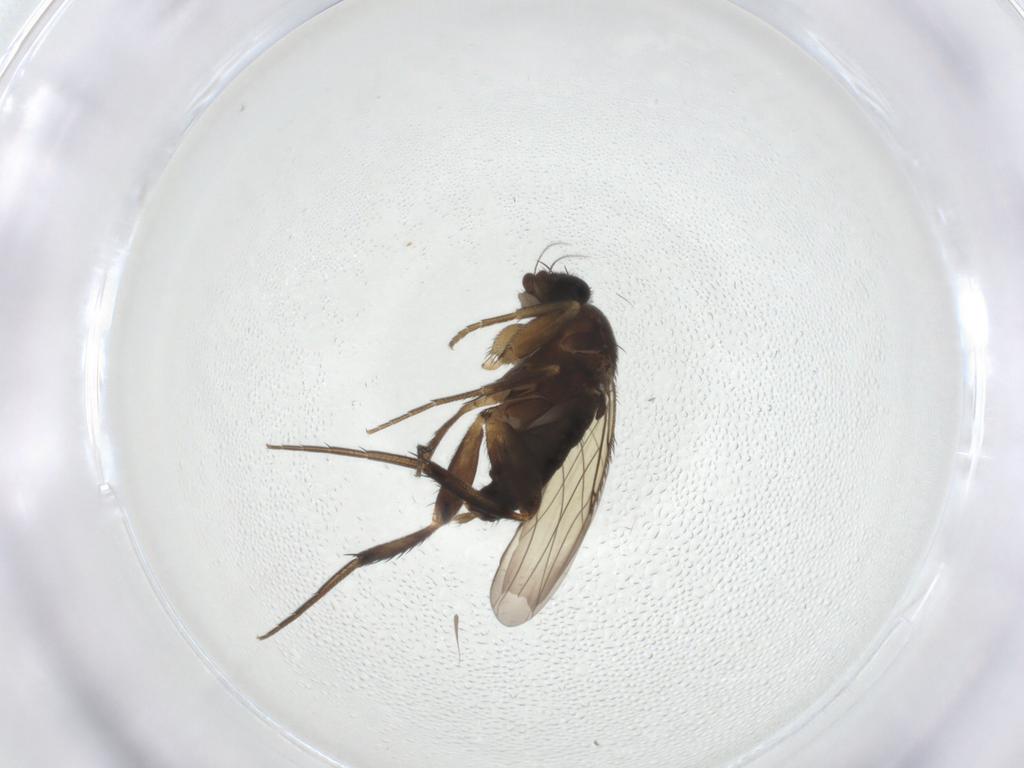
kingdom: Animalia
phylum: Arthropoda
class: Insecta
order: Diptera
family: Phoridae
